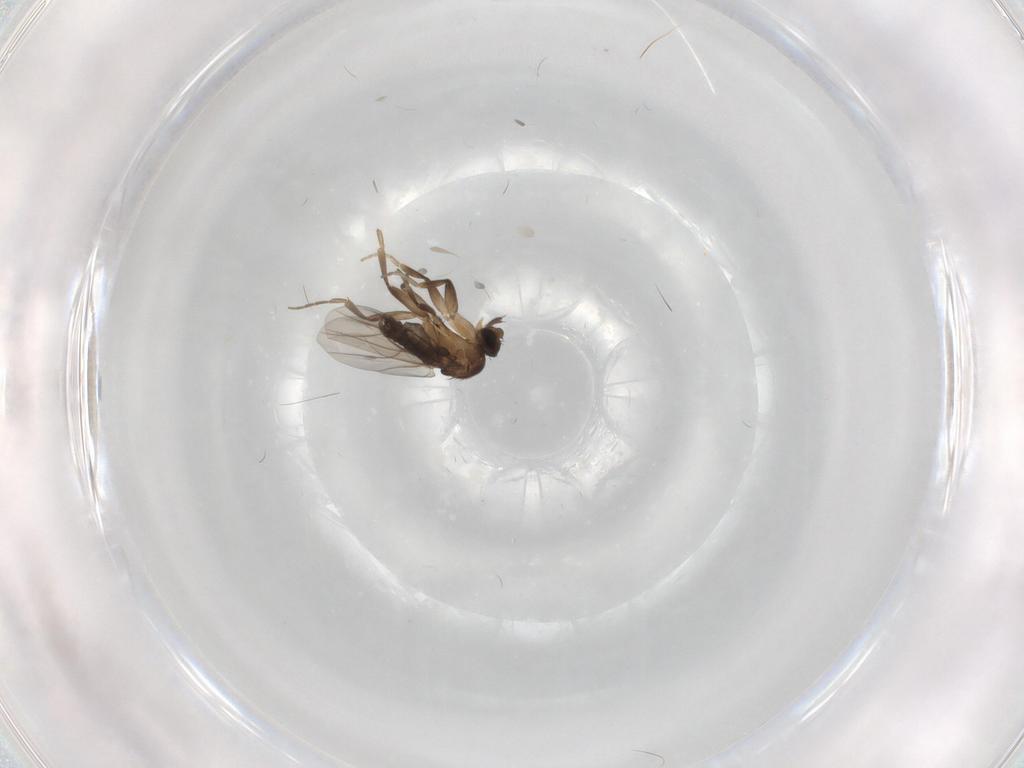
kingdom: Animalia
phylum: Arthropoda
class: Insecta
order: Diptera
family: Phoridae
